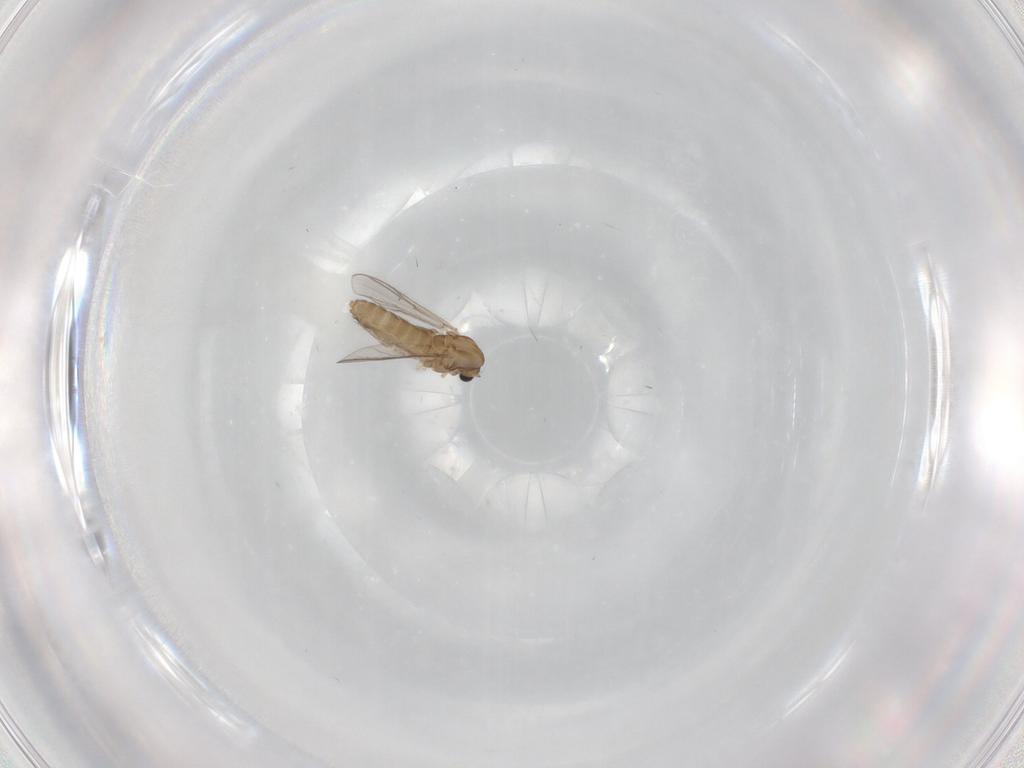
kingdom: Animalia
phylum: Arthropoda
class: Insecta
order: Diptera
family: Chironomidae
